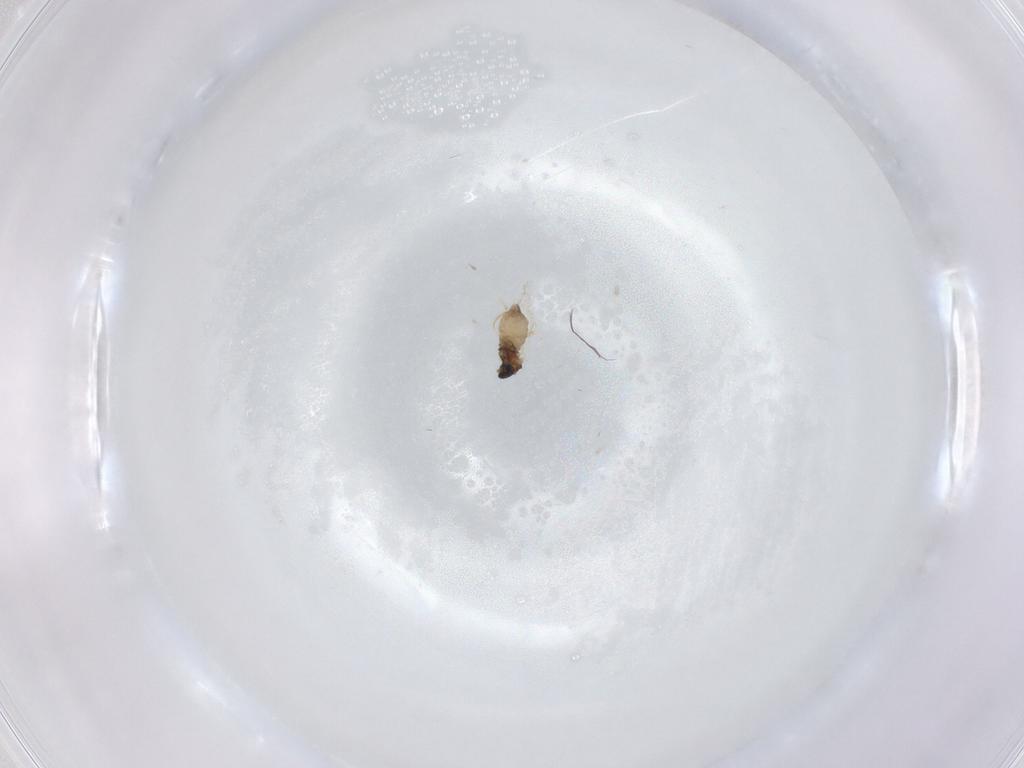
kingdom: Animalia
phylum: Arthropoda
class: Insecta
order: Diptera
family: Cecidomyiidae
